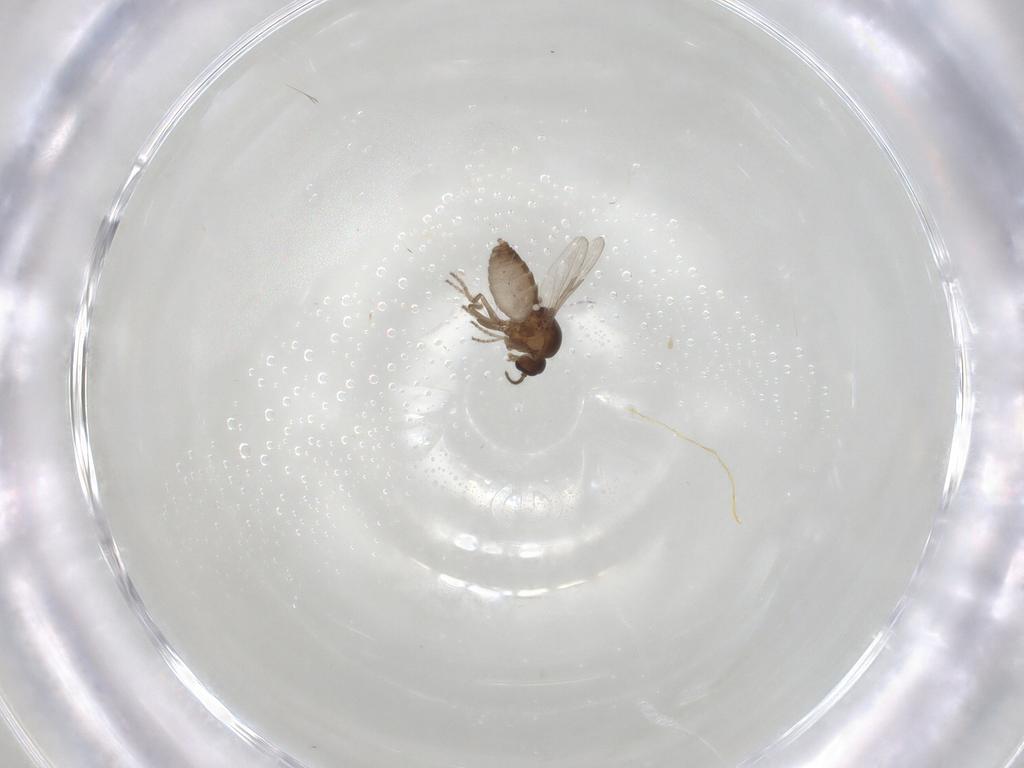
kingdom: Animalia
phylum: Arthropoda
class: Insecta
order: Diptera
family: Ceratopogonidae
